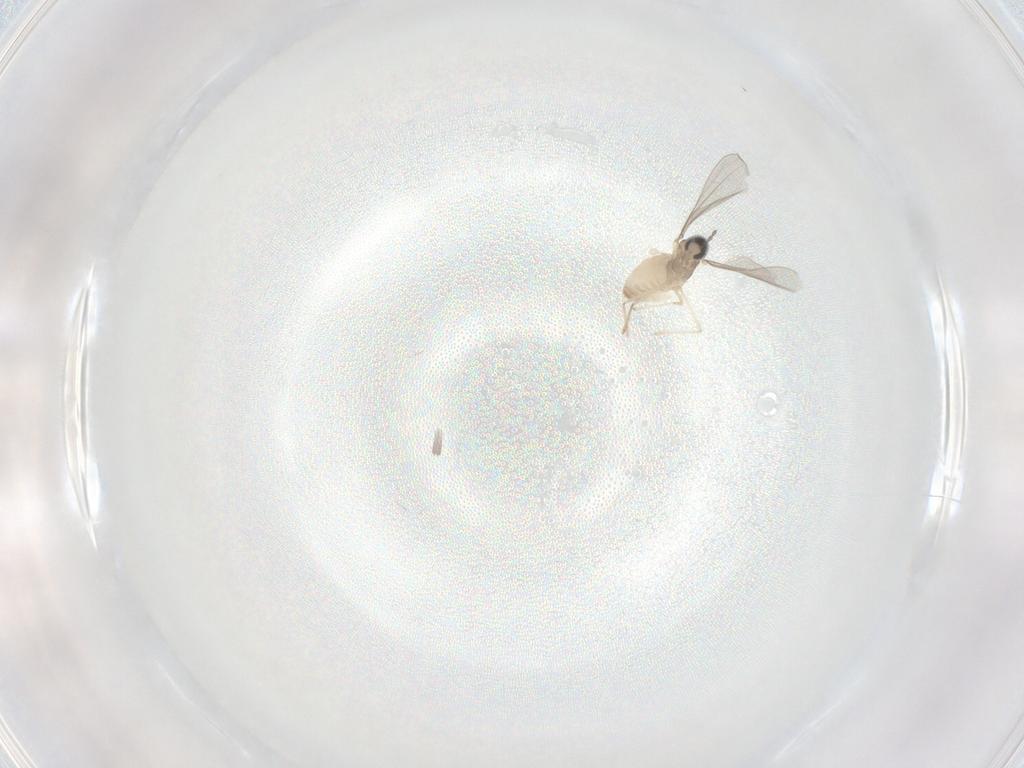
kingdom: Animalia
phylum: Arthropoda
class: Insecta
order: Diptera
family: Cecidomyiidae
